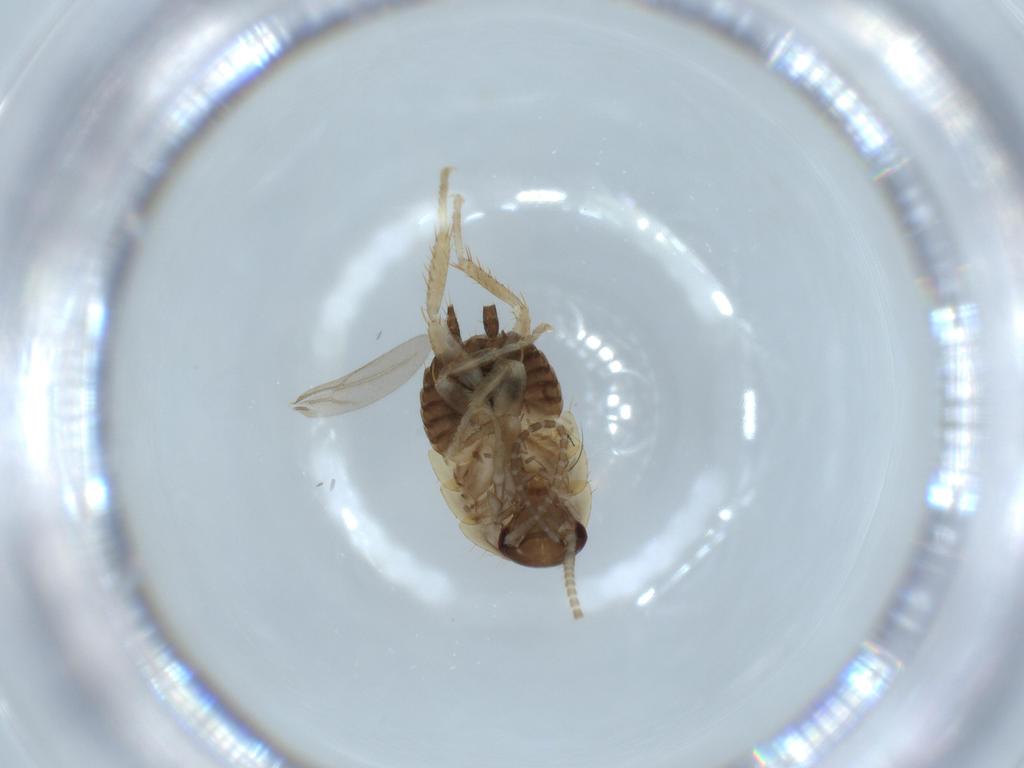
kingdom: Animalia
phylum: Arthropoda
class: Insecta
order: Blattodea
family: Ectobiidae
